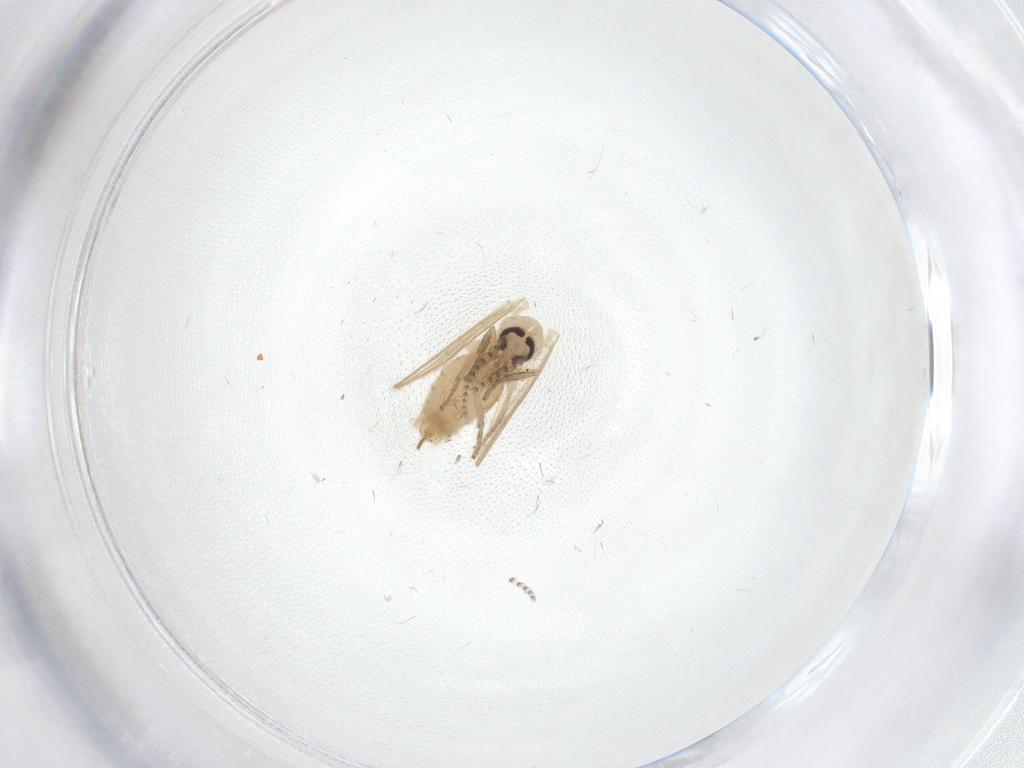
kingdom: Animalia
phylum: Arthropoda
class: Insecta
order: Diptera
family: Psychodidae
